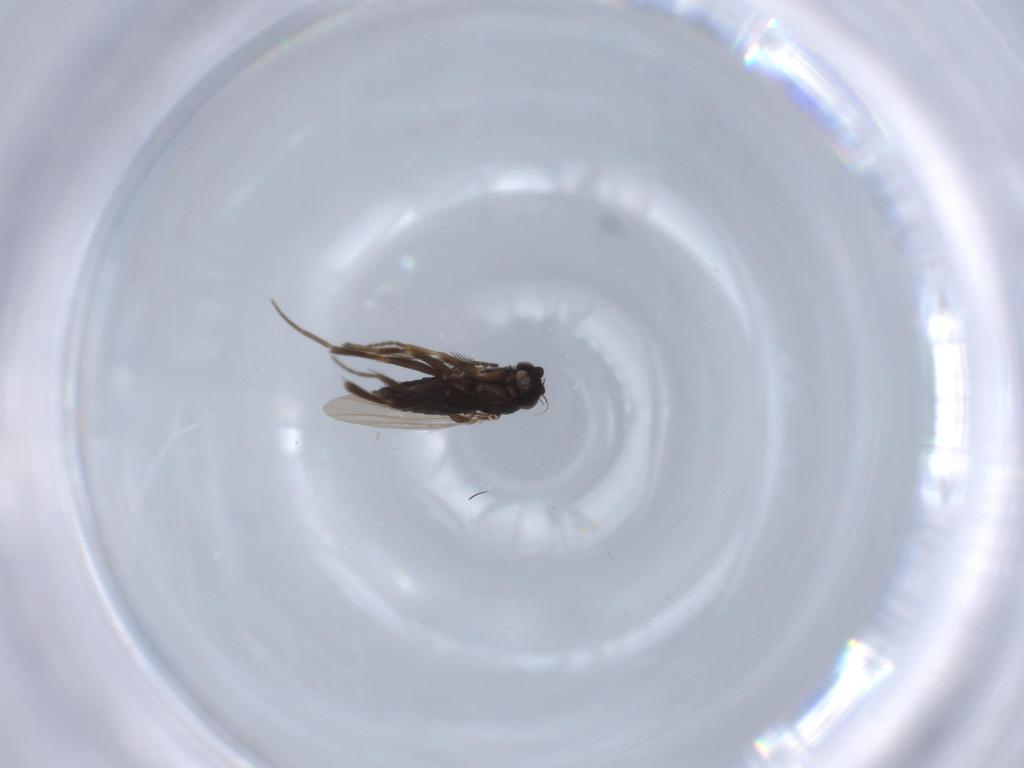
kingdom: Animalia
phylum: Arthropoda
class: Insecta
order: Diptera
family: Phoridae
